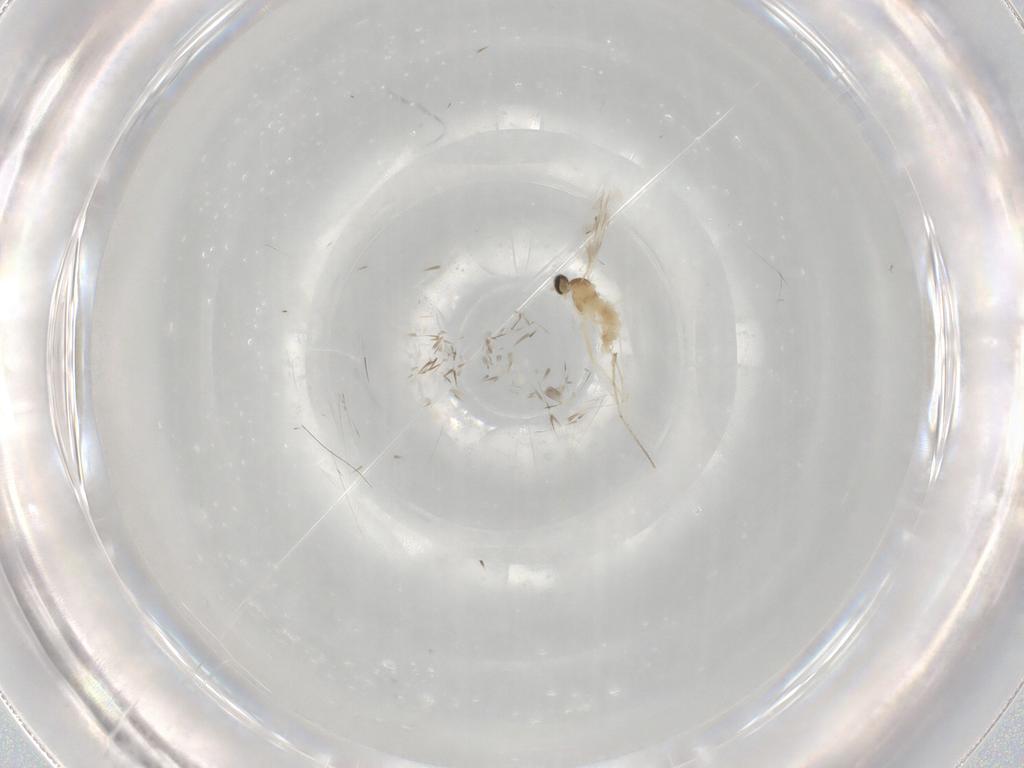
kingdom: Animalia
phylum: Arthropoda
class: Insecta
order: Diptera
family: Cecidomyiidae
